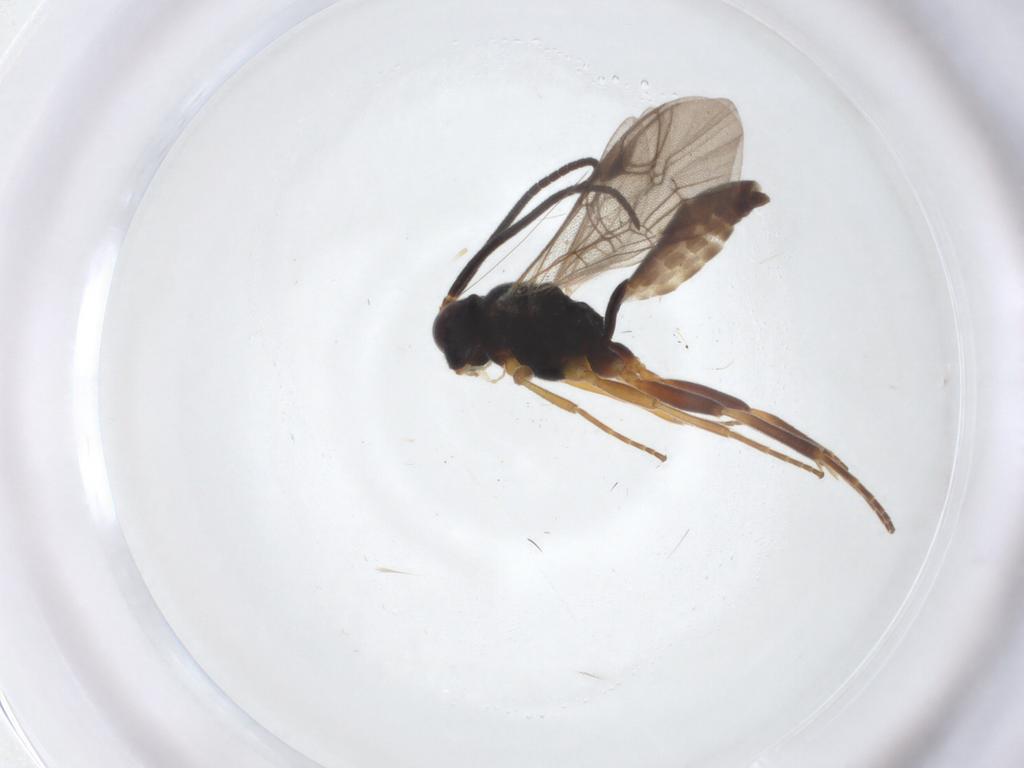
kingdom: Animalia
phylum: Arthropoda
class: Insecta
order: Hymenoptera
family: Ichneumonidae
